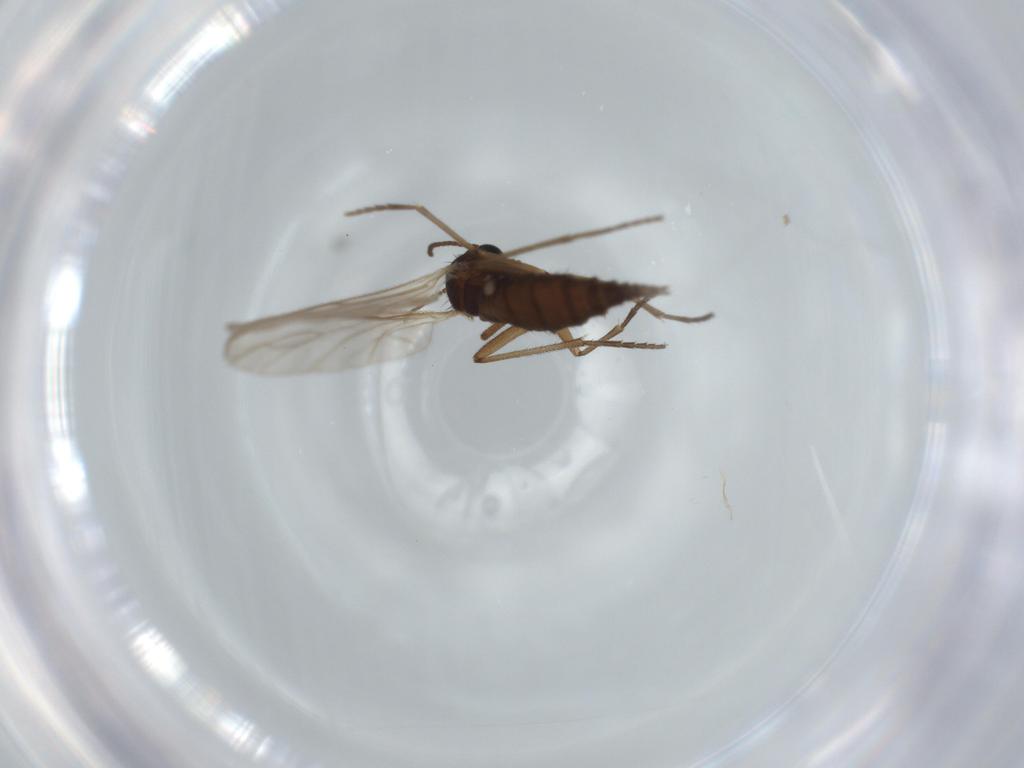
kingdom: Animalia
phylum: Arthropoda
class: Insecta
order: Diptera
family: Sciaridae
